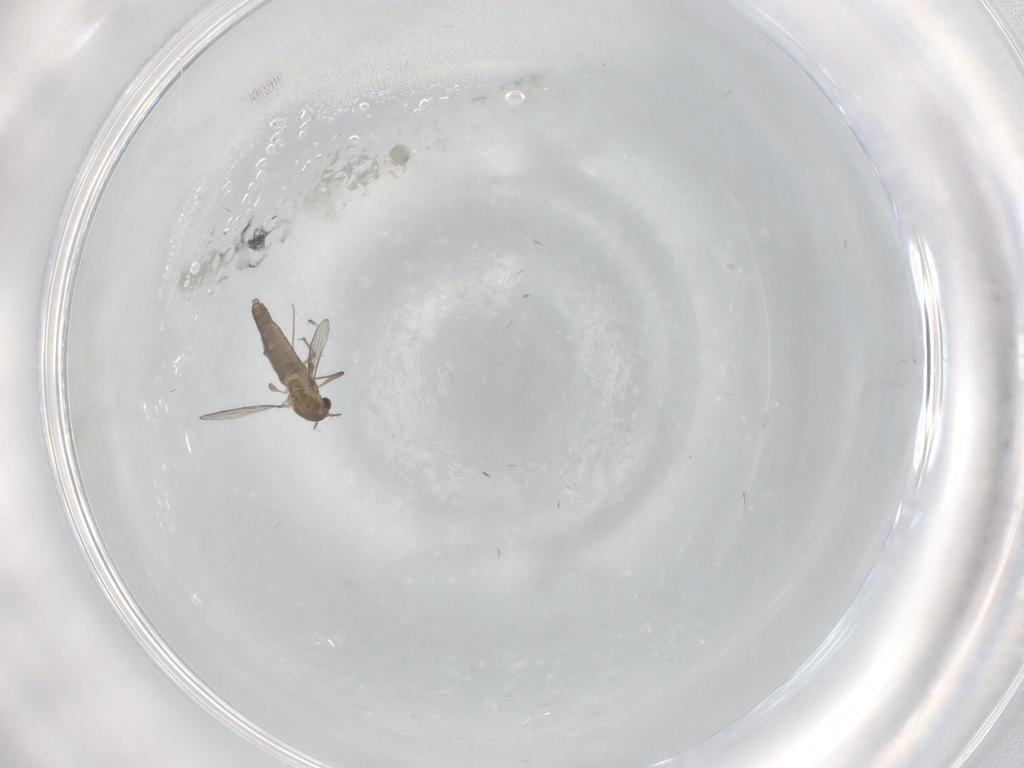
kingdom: Animalia
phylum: Arthropoda
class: Insecta
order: Diptera
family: Chironomidae
